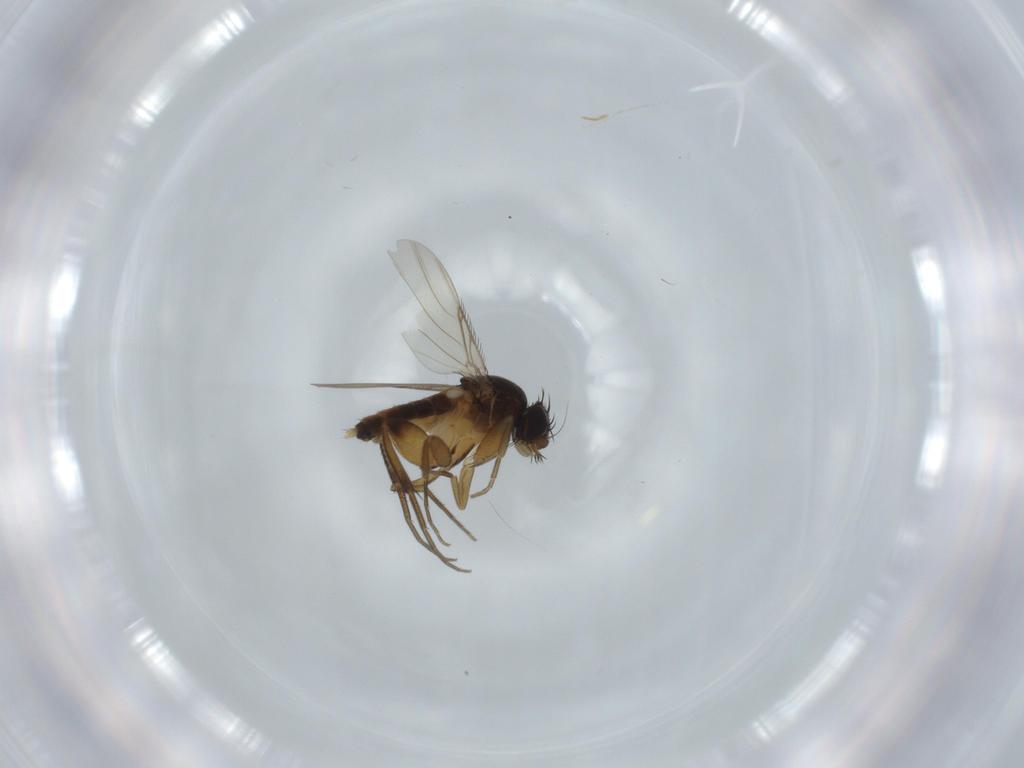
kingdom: Animalia
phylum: Arthropoda
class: Insecta
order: Diptera
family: Phoridae
